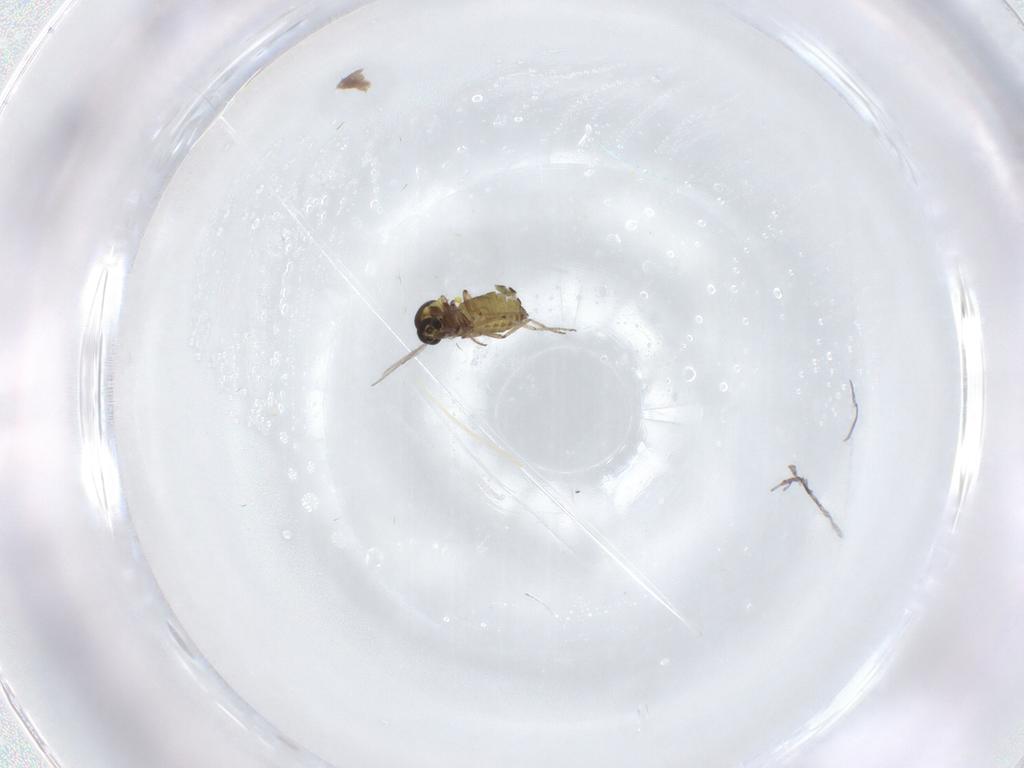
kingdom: Animalia
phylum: Arthropoda
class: Insecta
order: Diptera
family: Ceratopogonidae
